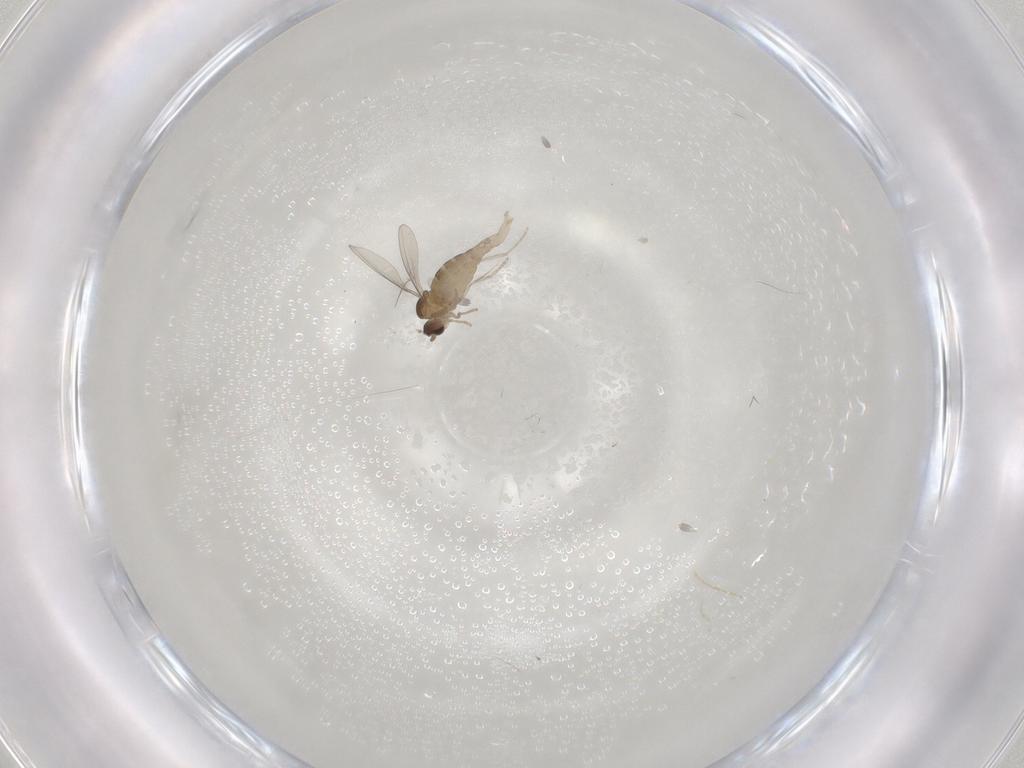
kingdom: Animalia
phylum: Arthropoda
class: Insecta
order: Diptera
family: Cecidomyiidae
